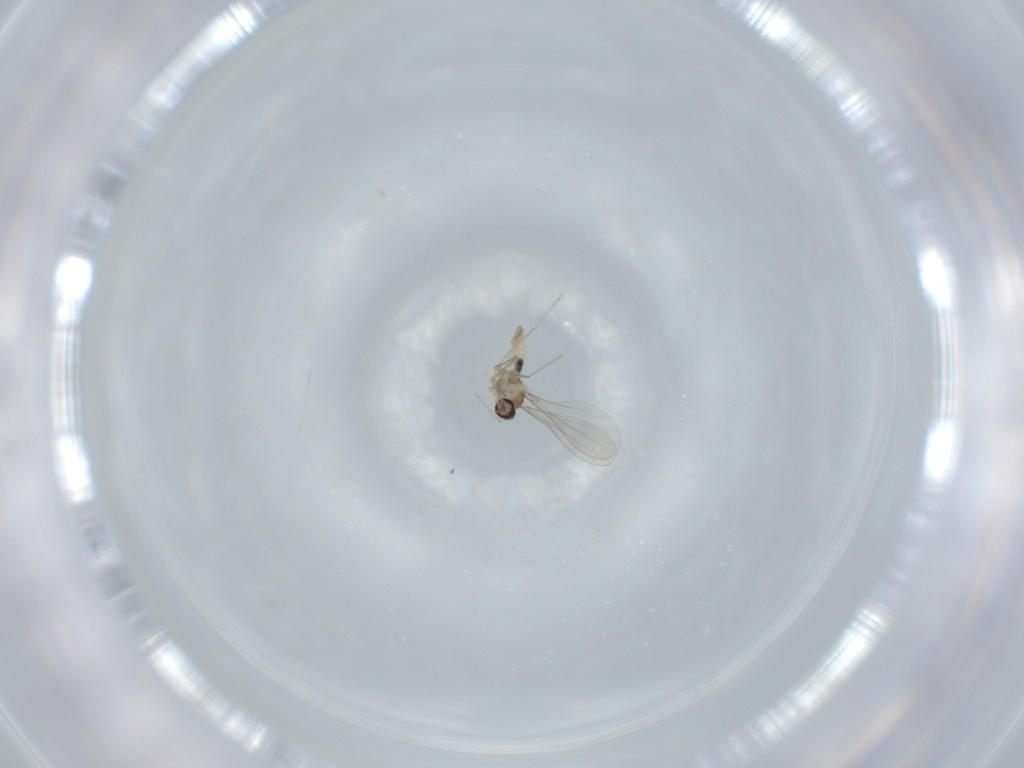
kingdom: Animalia
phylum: Arthropoda
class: Insecta
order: Diptera
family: Cecidomyiidae
